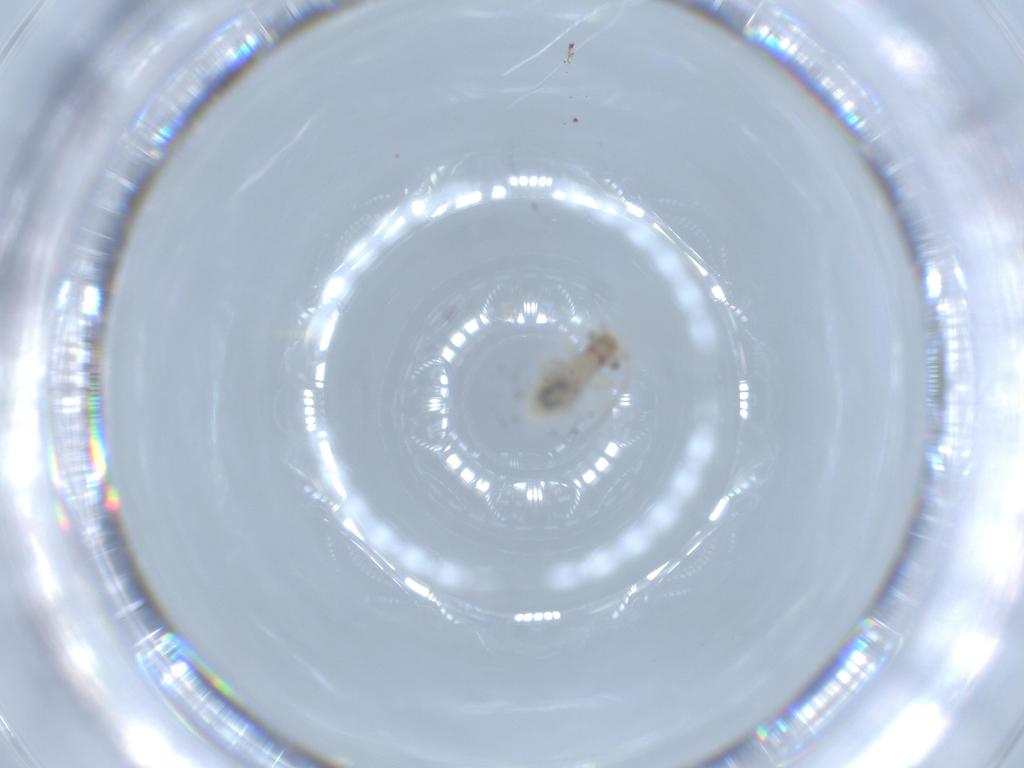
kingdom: Animalia
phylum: Arthropoda
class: Insecta
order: Psocodea
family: Caeciliusidae
